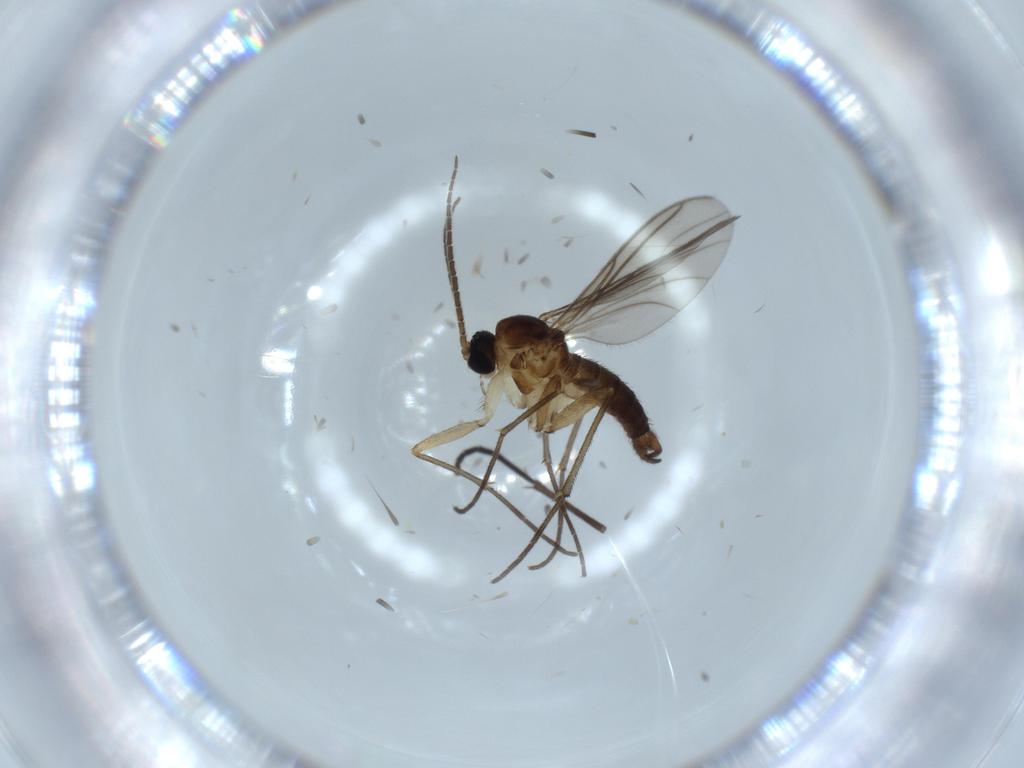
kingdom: Animalia
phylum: Arthropoda
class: Insecta
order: Diptera
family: Sciaridae
